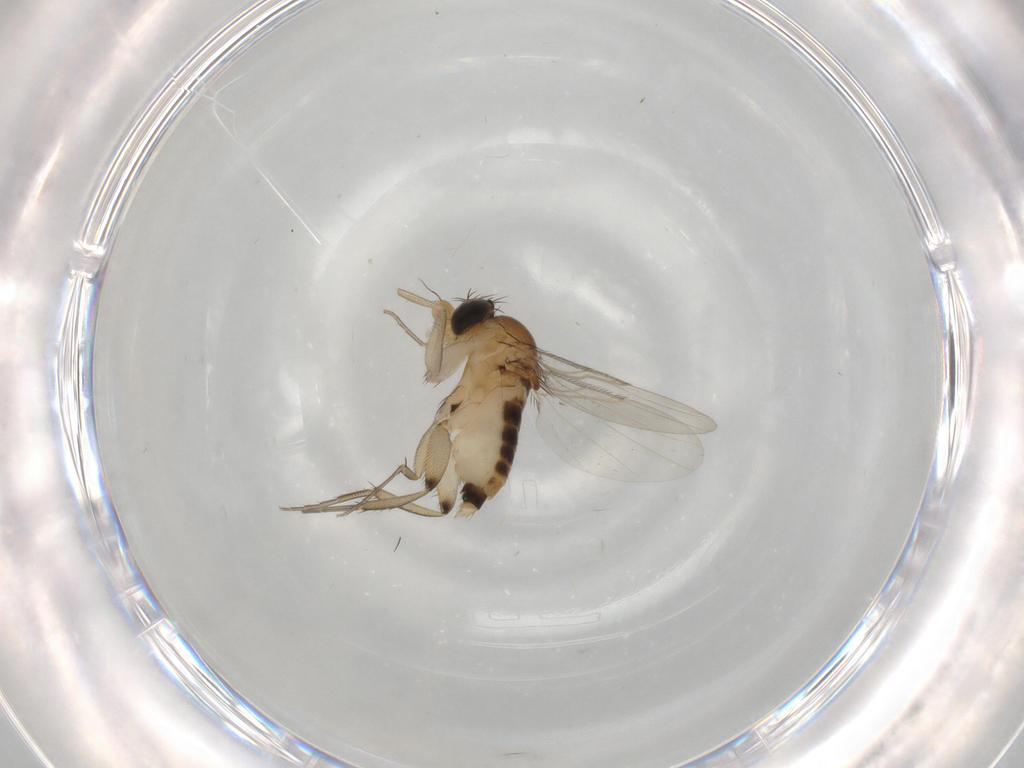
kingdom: Animalia
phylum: Arthropoda
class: Insecta
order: Diptera
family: Phoridae
